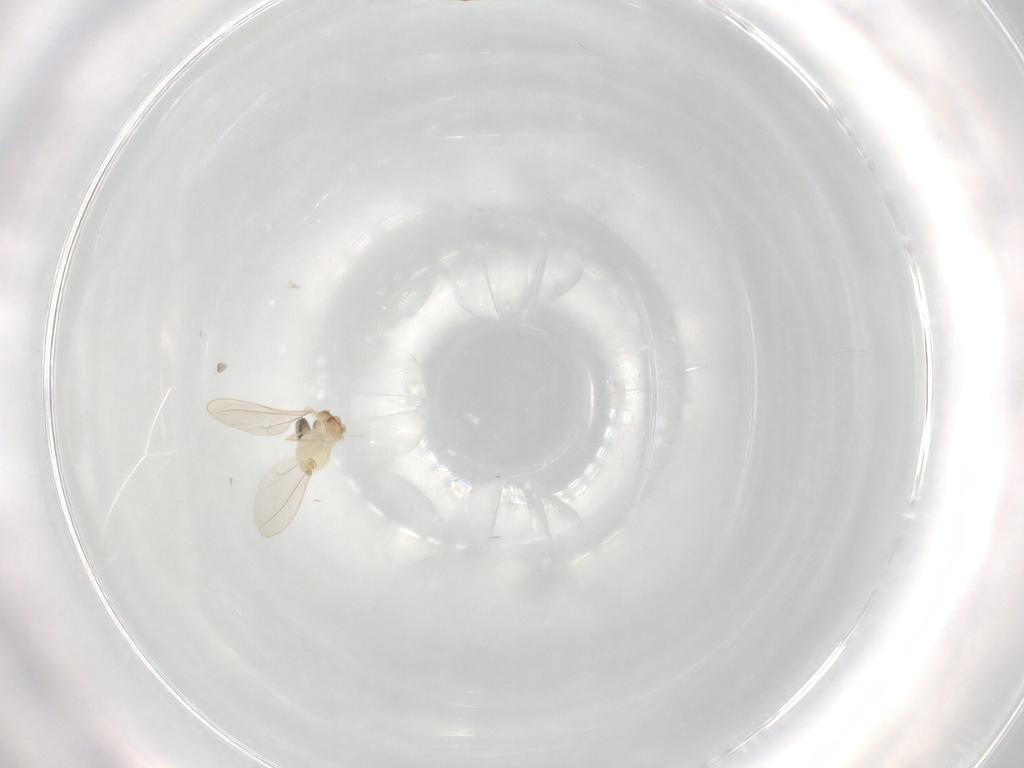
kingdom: Animalia
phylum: Arthropoda
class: Insecta
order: Diptera
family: Cecidomyiidae
